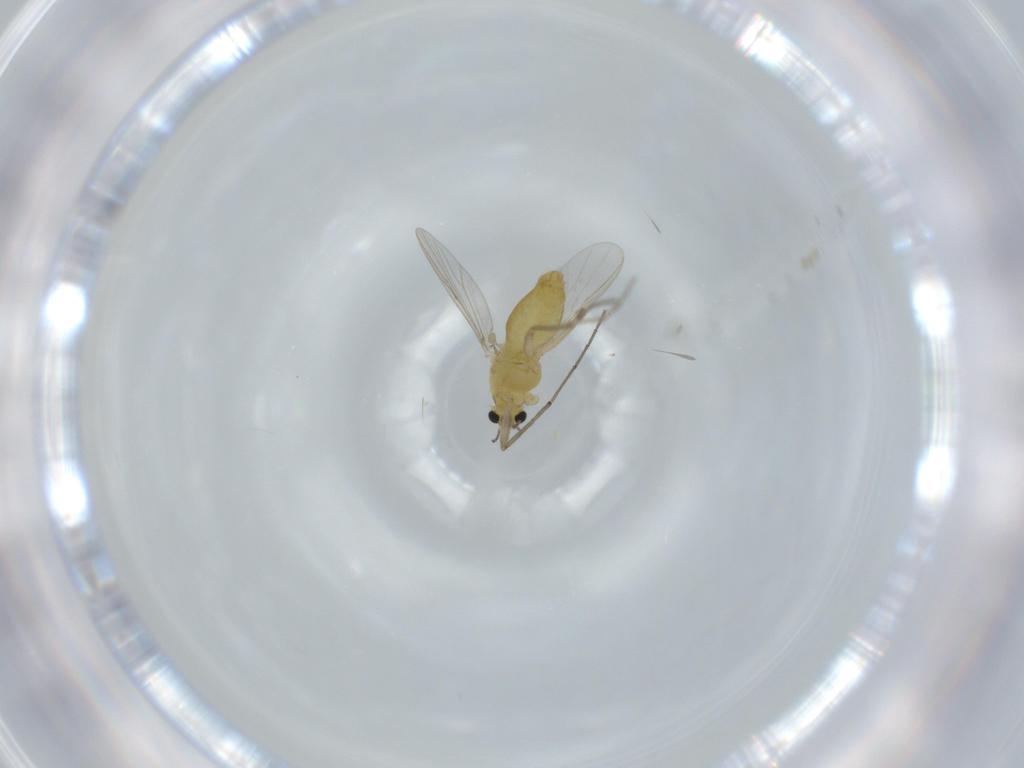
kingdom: Animalia
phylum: Arthropoda
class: Insecta
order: Diptera
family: Chironomidae
